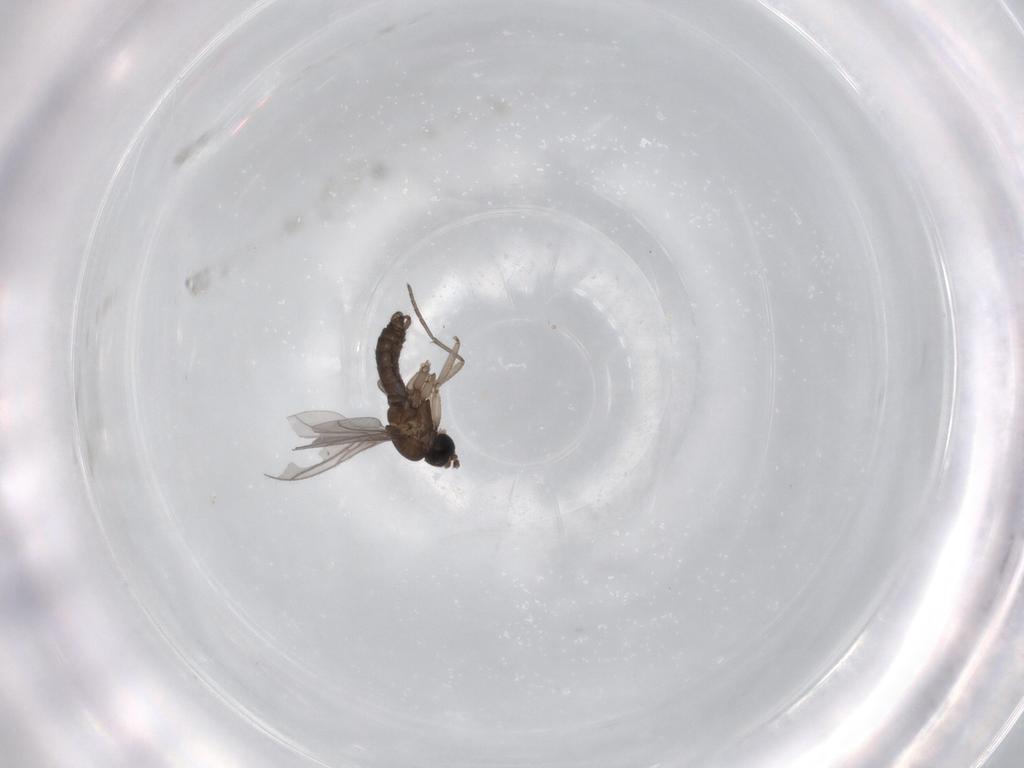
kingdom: Animalia
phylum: Arthropoda
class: Insecta
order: Diptera
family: Sciaridae
